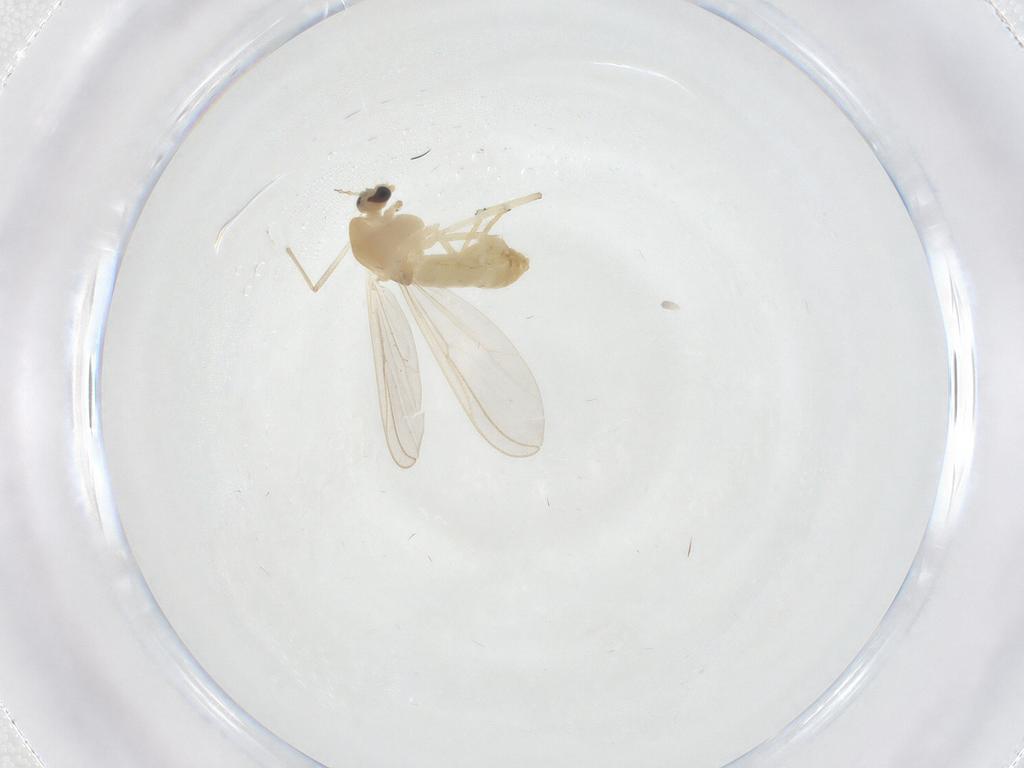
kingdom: Animalia
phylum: Arthropoda
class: Insecta
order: Diptera
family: Chironomidae
